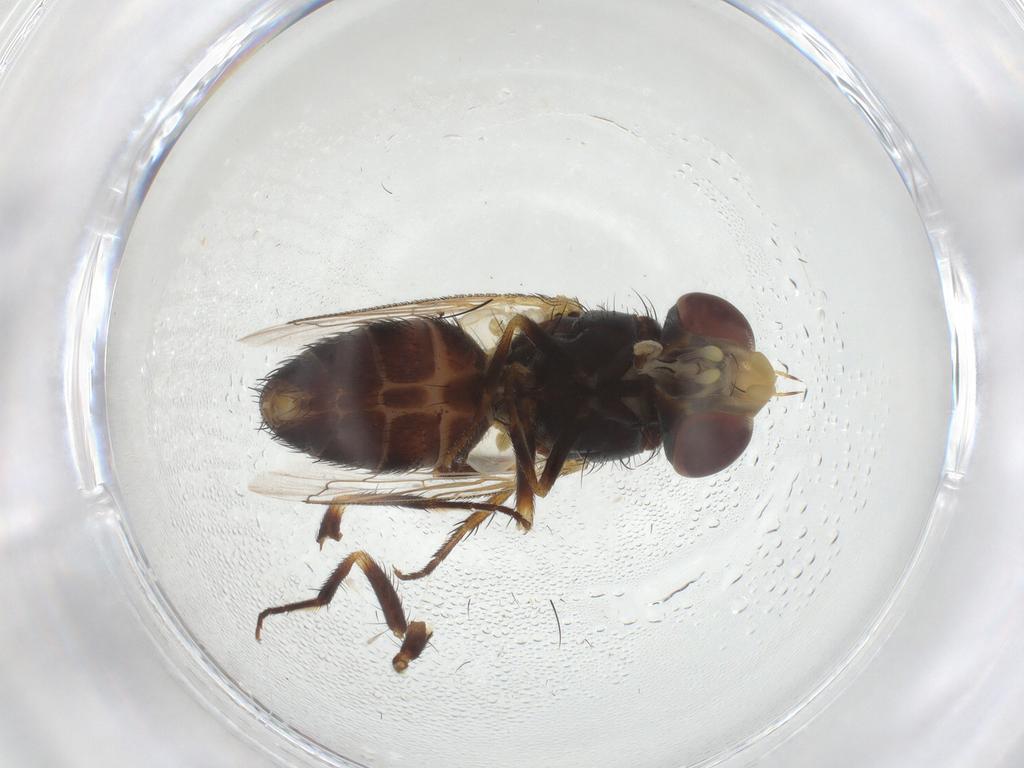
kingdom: Animalia
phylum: Arthropoda
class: Insecta
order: Diptera
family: Sarcophagidae
